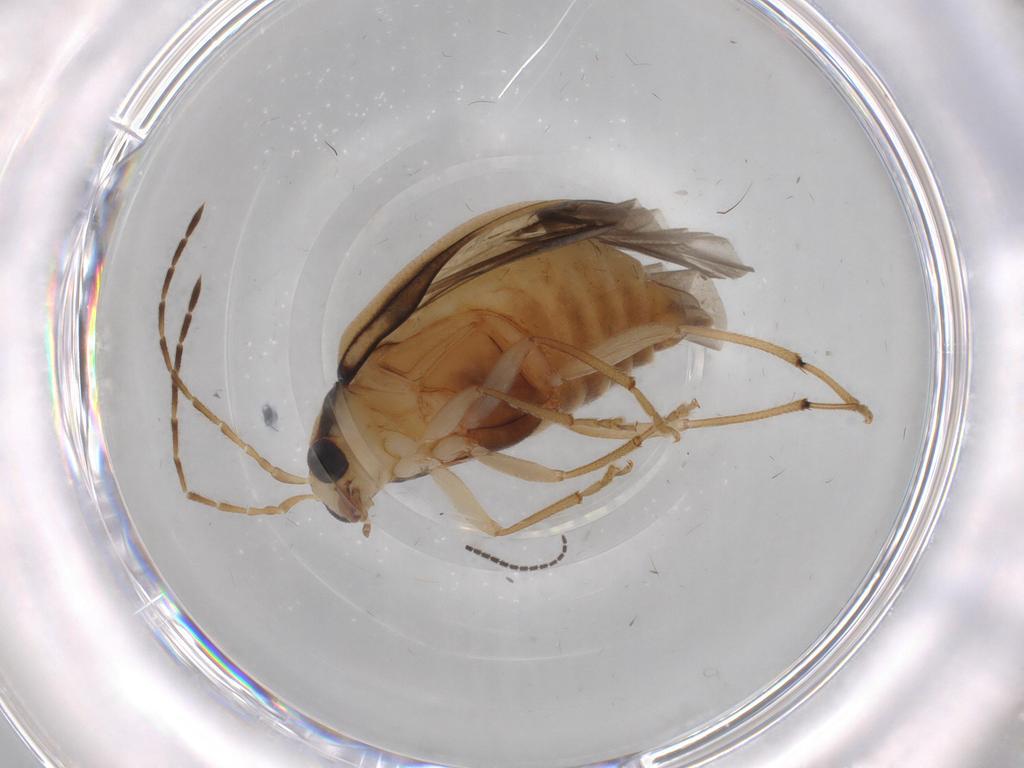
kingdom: Animalia
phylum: Arthropoda
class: Insecta
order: Coleoptera
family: Chrysomelidae
